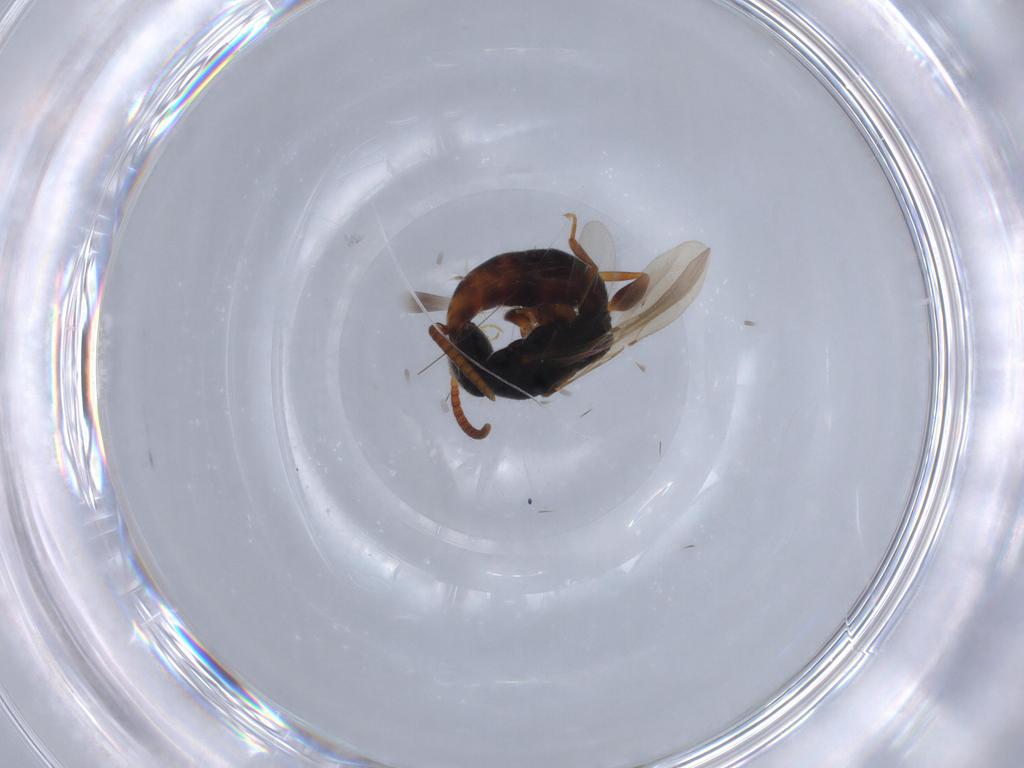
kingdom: Animalia
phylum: Arthropoda
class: Insecta
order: Hymenoptera
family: Bethylidae
